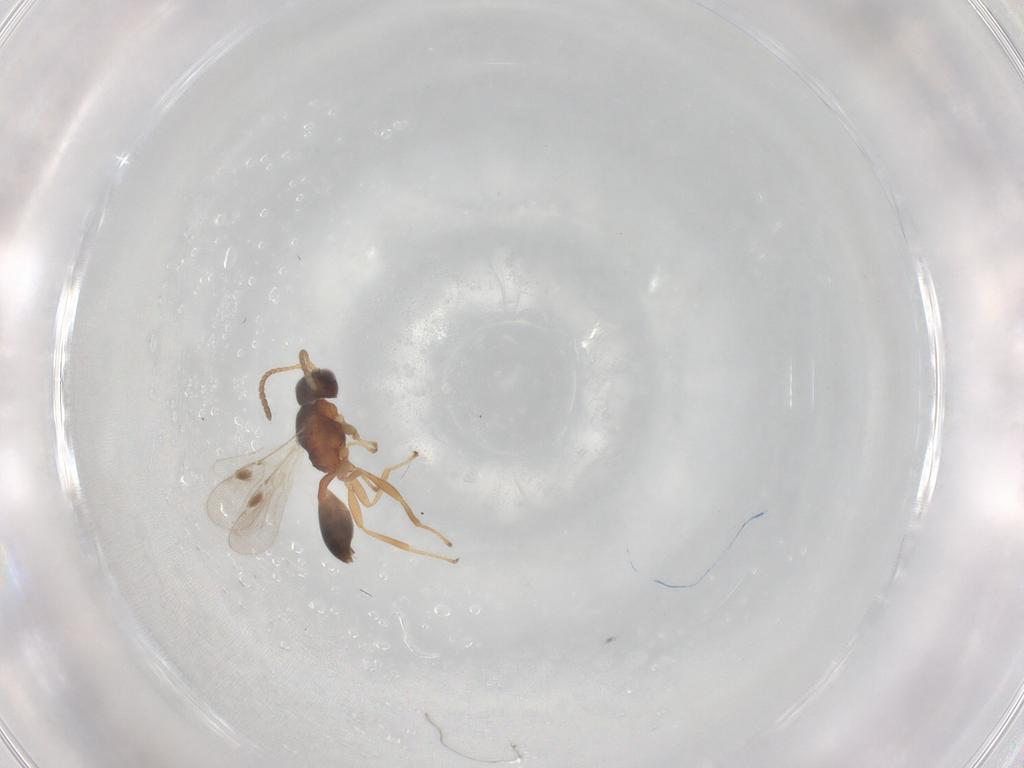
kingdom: Animalia
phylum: Arthropoda
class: Insecta
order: Hymenoptera
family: Braconidae
